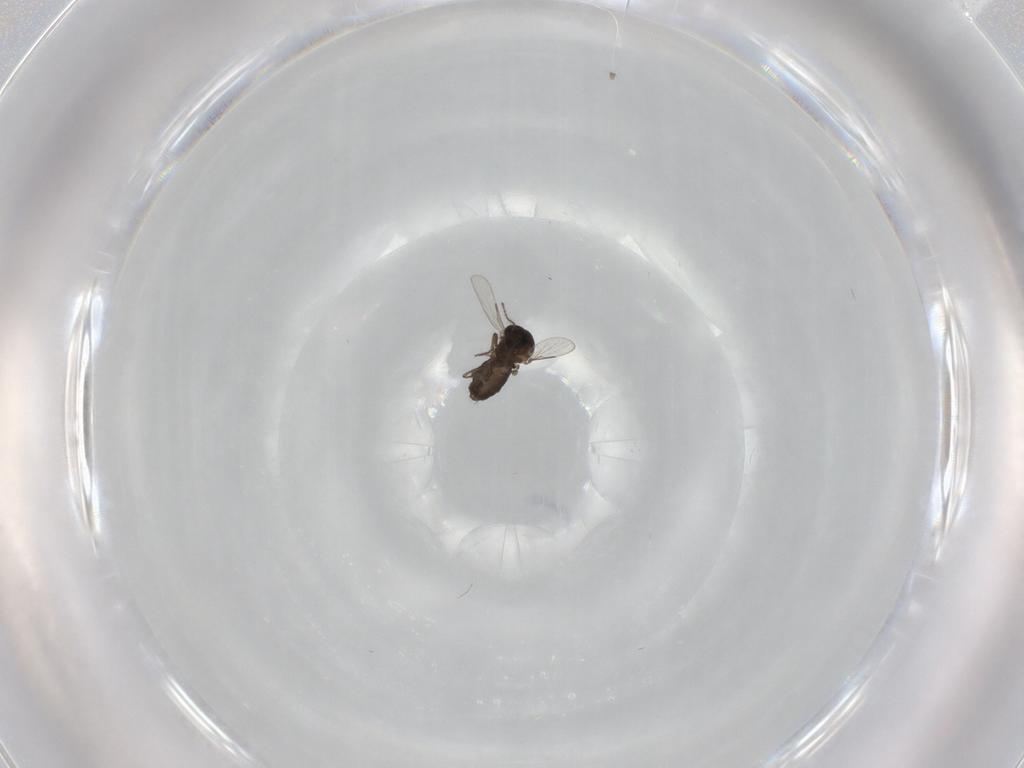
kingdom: Animalia
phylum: Arthropoda
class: Insecta
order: Diptera
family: Ceratopogonidae
